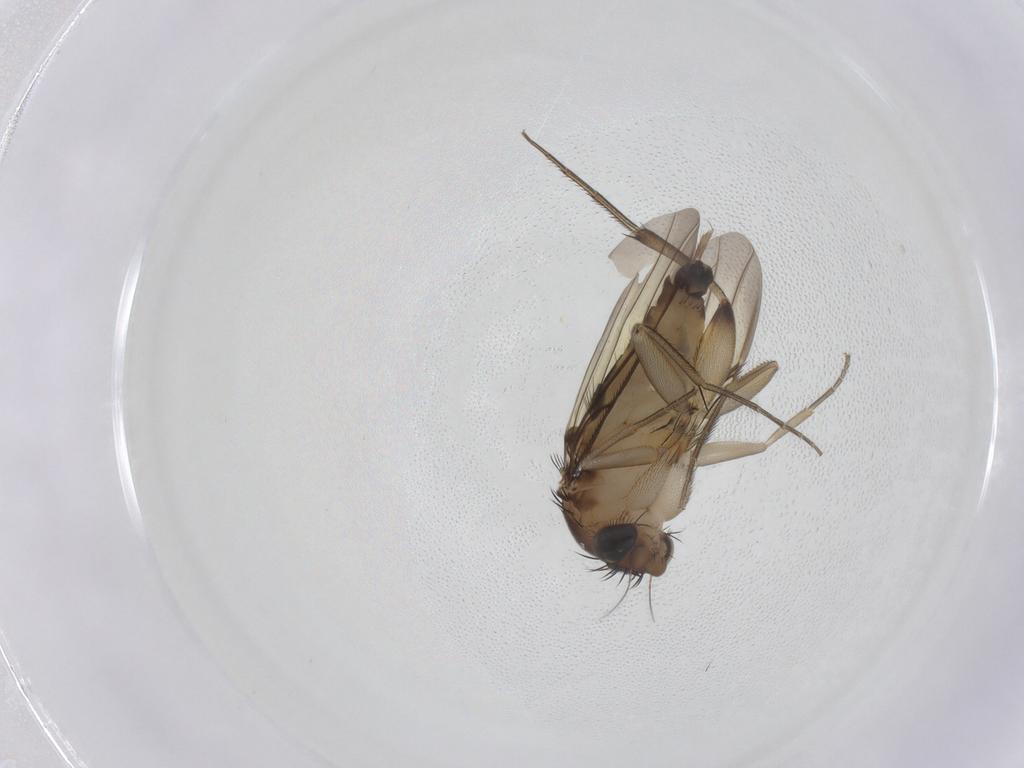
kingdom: Animalia
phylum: Arthropoda
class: Insecta
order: Diptera
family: Phoridae
